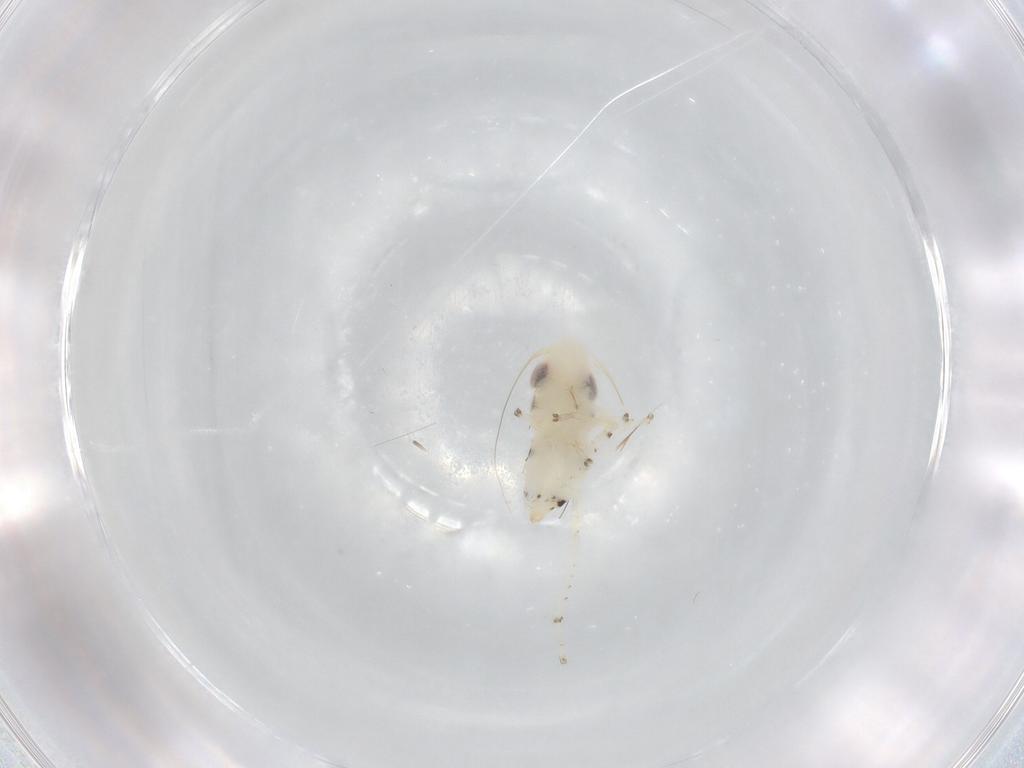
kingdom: Animalia
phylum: Arthropoda
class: Insecta
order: Hemiptera
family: Cicadellidae
